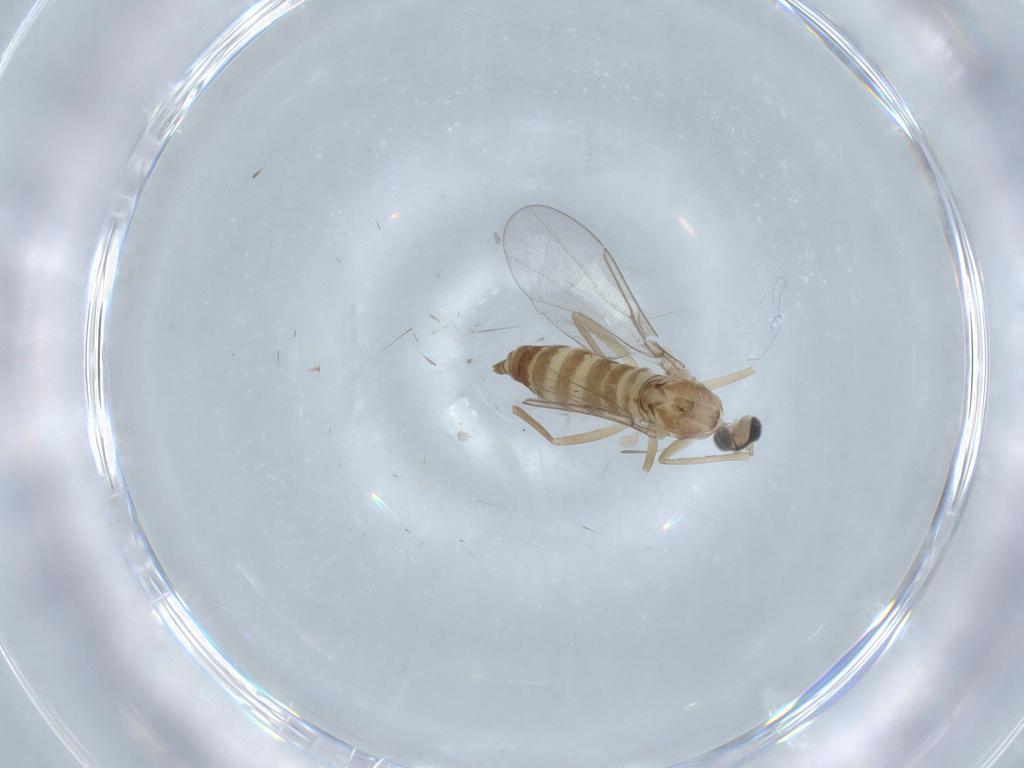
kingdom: Animalia
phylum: Arthropoda
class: Insecta
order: Diptera
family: Cecidomyiidae
